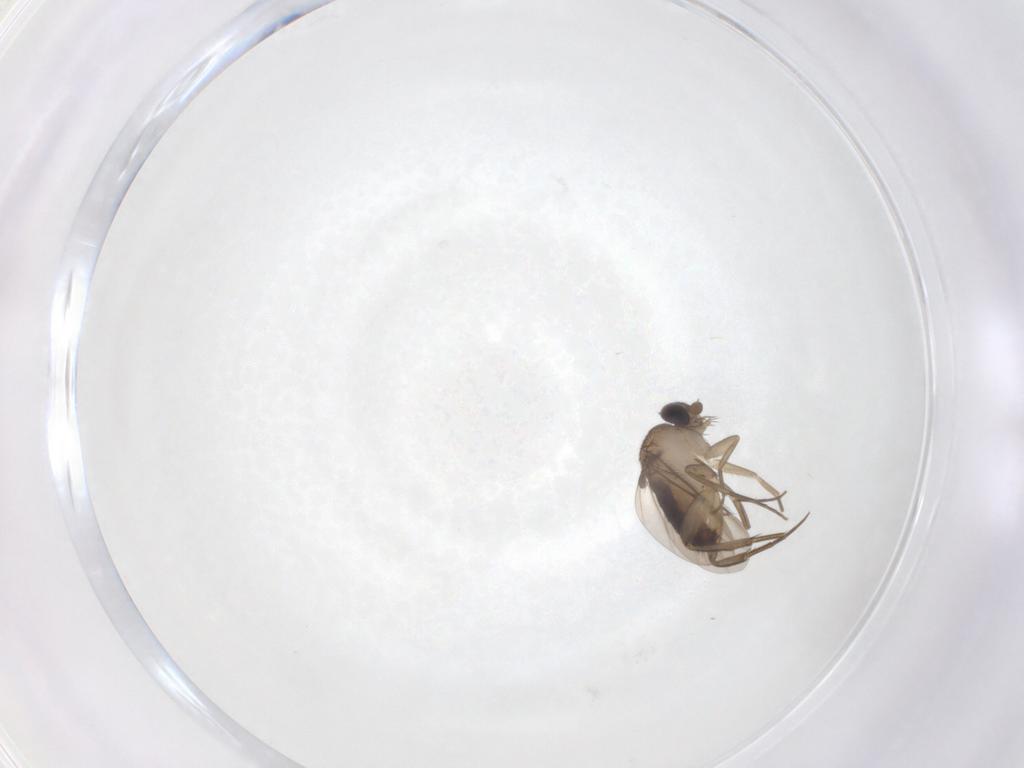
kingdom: Animalia
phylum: Arthropoda
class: Insecta
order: Diptera
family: Phoridae
